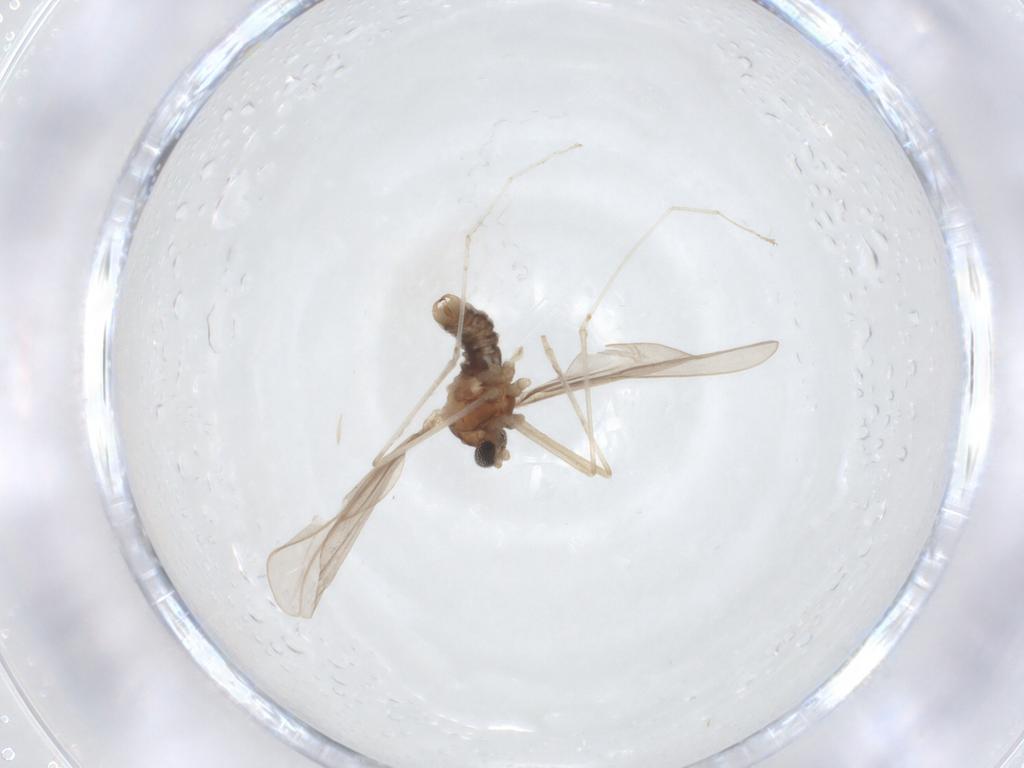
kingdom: Animalia
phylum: Arthropoda
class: Insecta
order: Diptera
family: Cecidomyiidae
